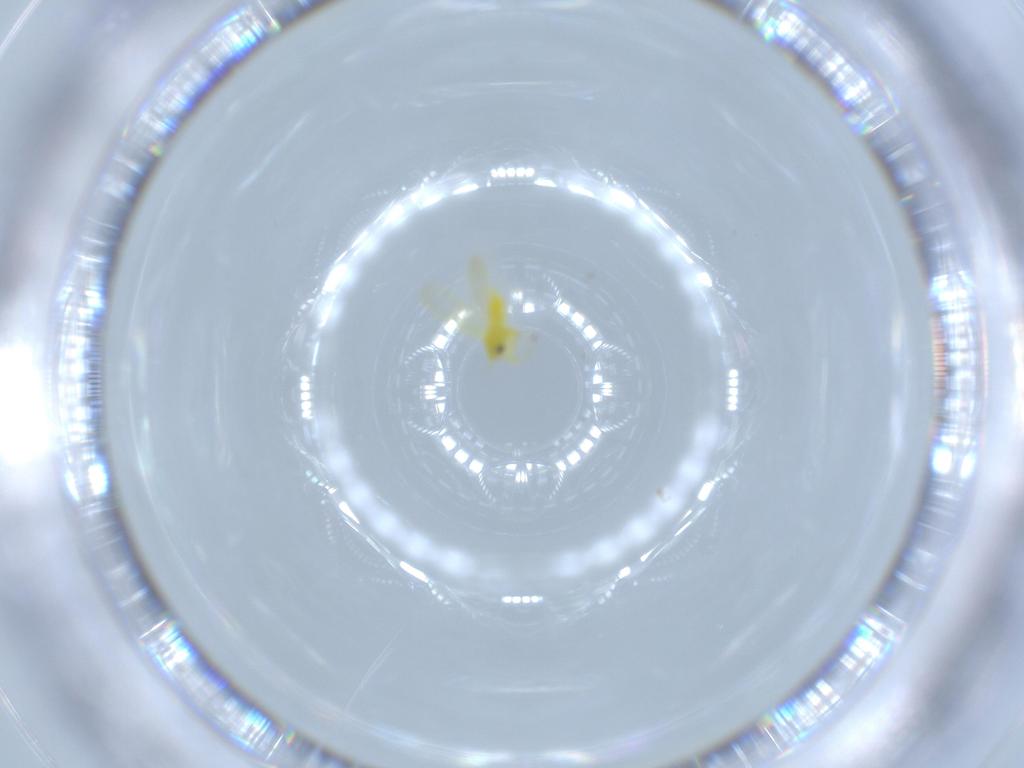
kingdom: Animalia
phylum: Arthropoda
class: Insecta
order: Hemiptera
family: Aleyrodidae
